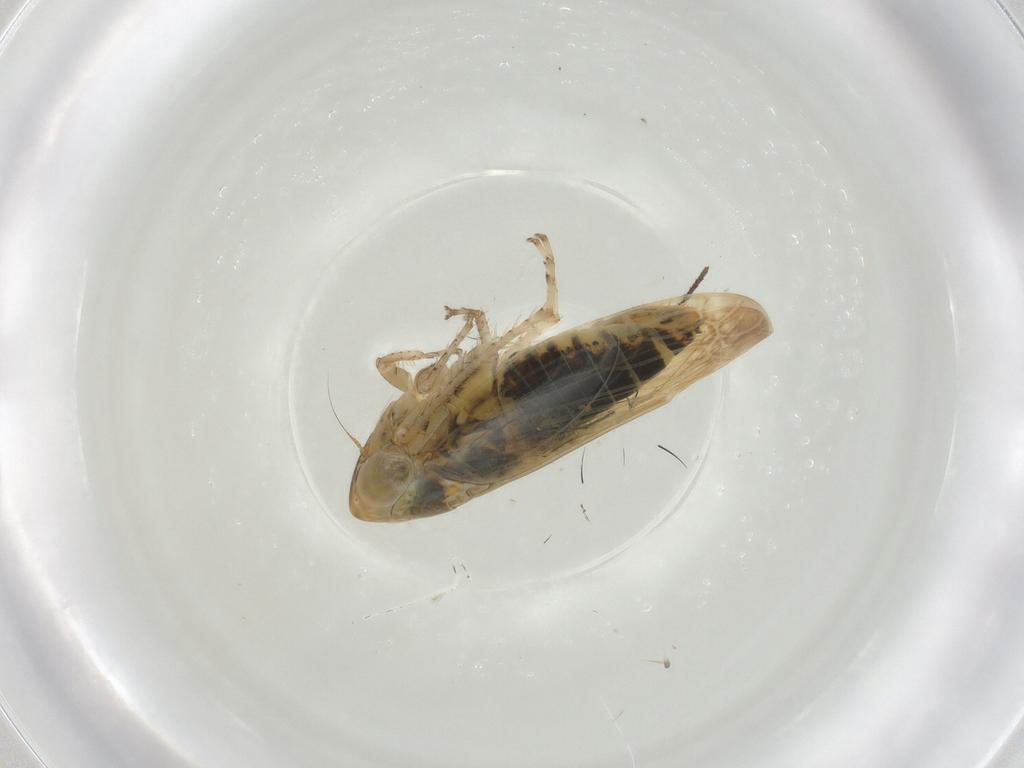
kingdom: Animalia
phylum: Arthropoda
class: Insecta
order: Hemiptera
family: Cicadellidae
